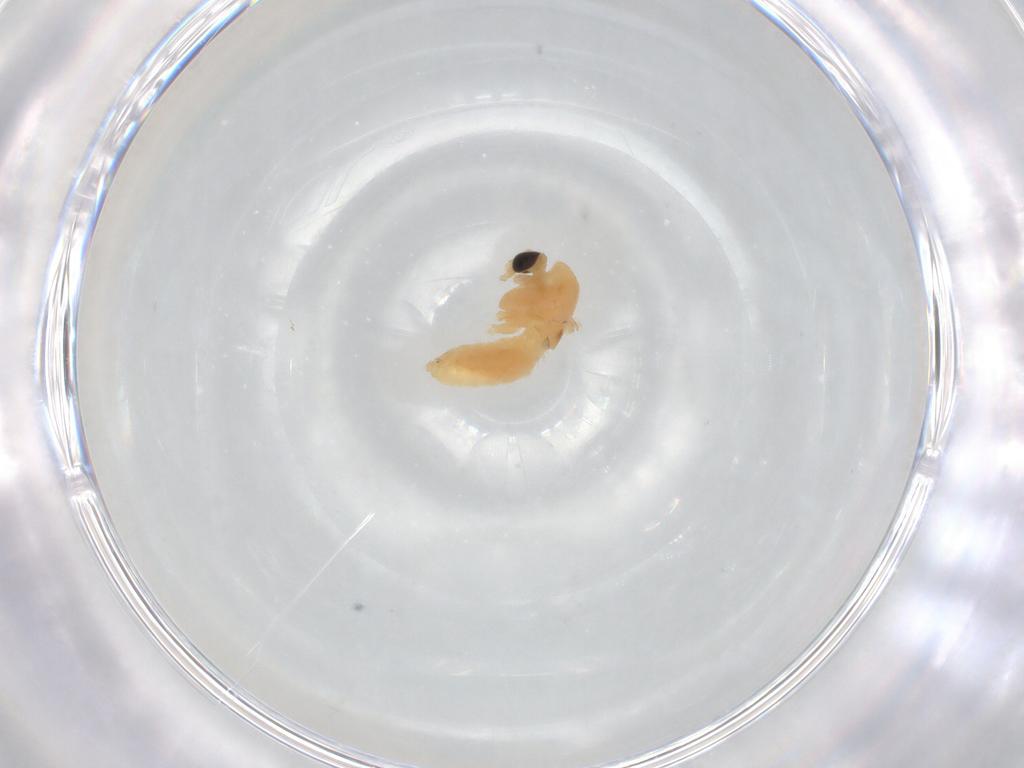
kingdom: Animalia
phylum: Arthropoda
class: Insecta
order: Diptera
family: Chironomidae
